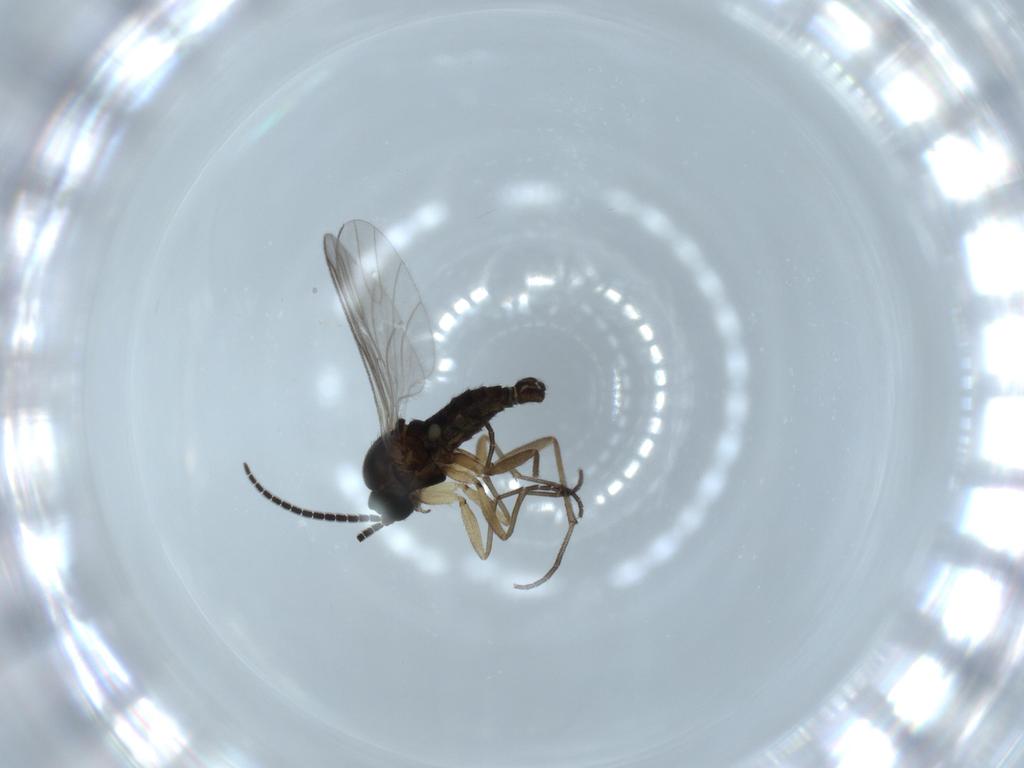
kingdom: Animalia
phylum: Arthropoda
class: Insecta
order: Diptera
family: Sciaridae
